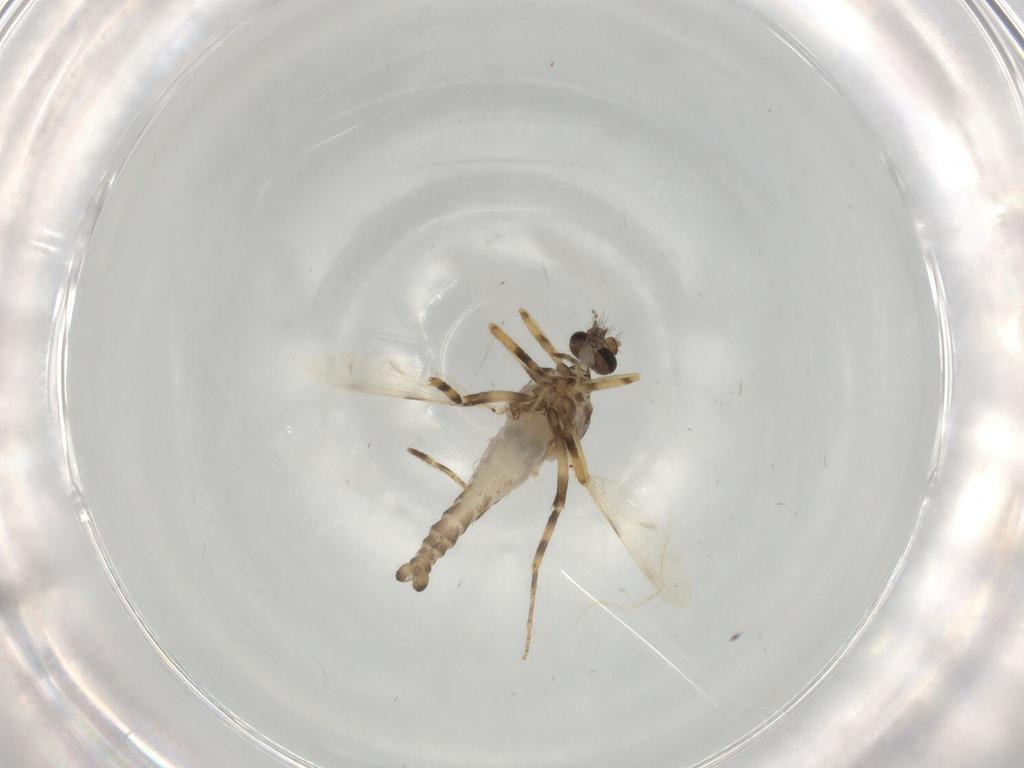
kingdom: Animalia
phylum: Arthropoda
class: Insecta
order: Diptera
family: Ceratopogonidae
